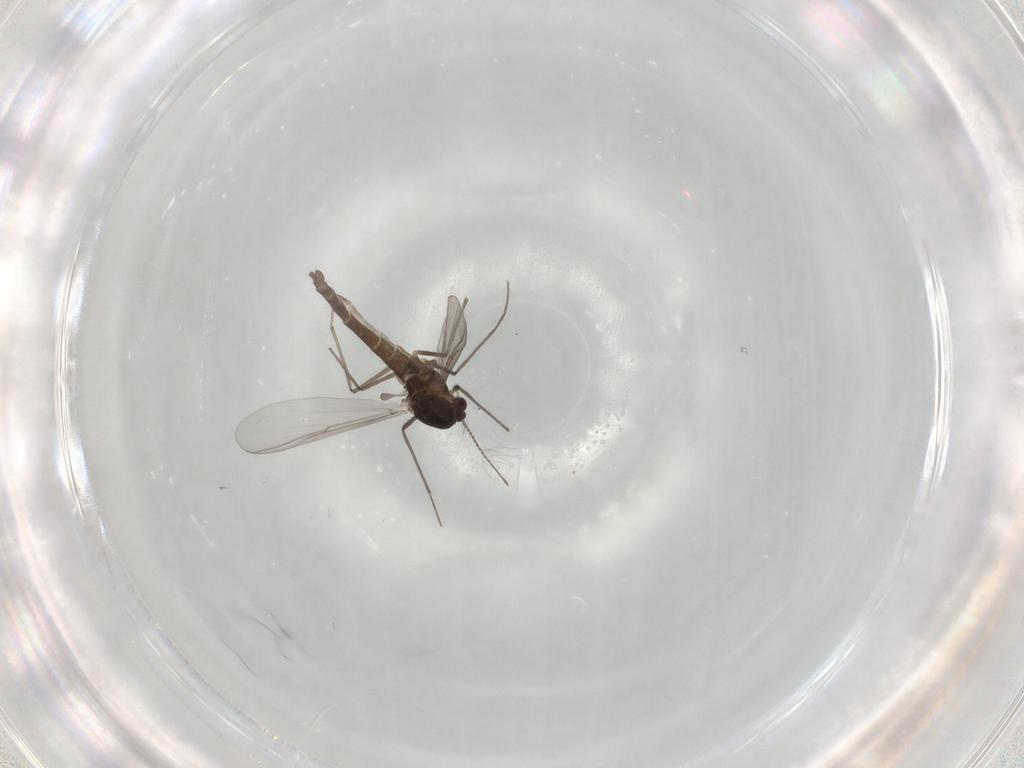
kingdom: Animalia
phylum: Arthropoda
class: Insecta
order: Diptera
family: Chironomidae
